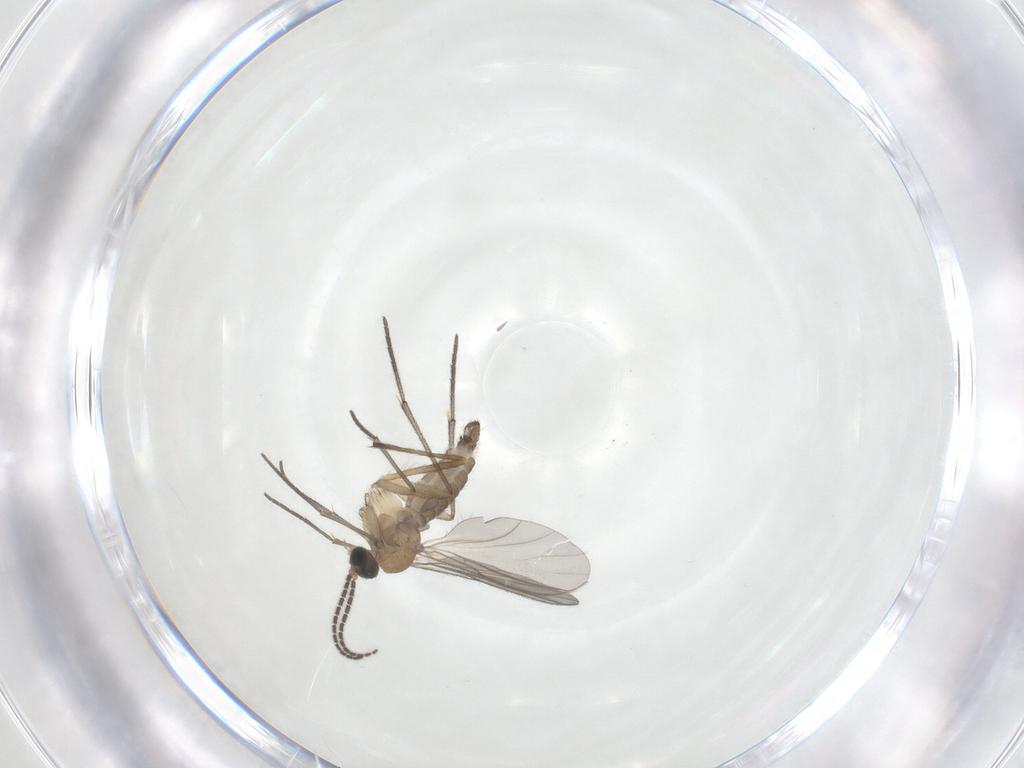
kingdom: Animalia
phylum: Arthropoda
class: Insecta
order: Diptera
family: Sciaridae
